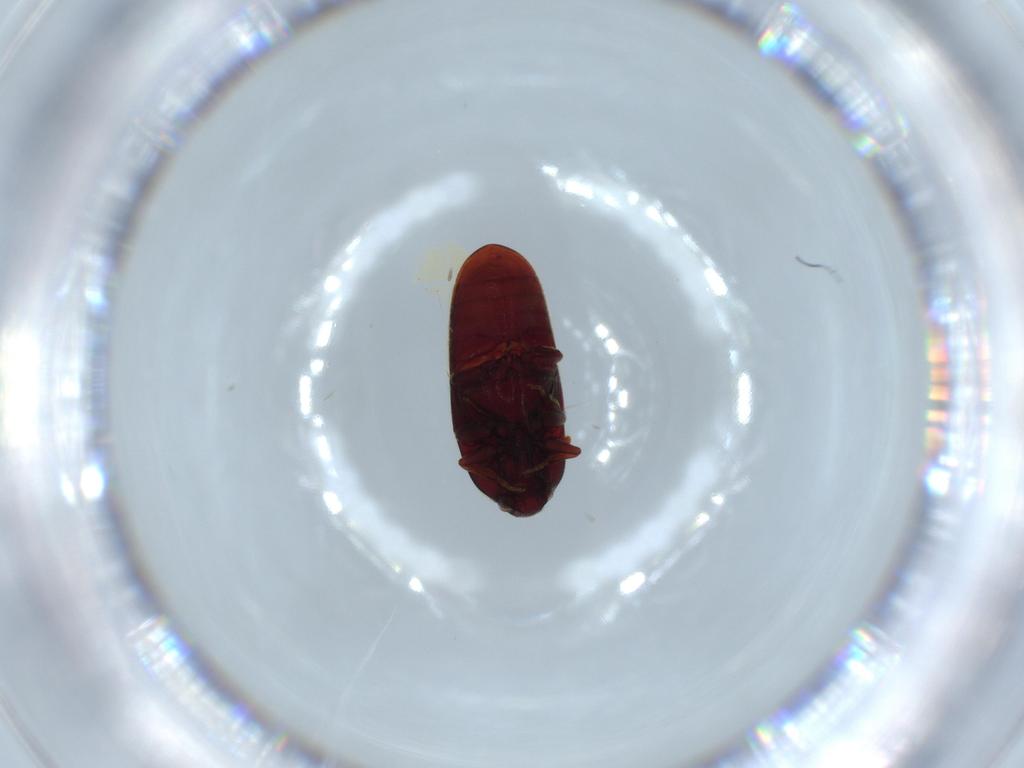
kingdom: Animalia
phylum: Arthropoda
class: Insecta
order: Coleoptera
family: Throscidae
